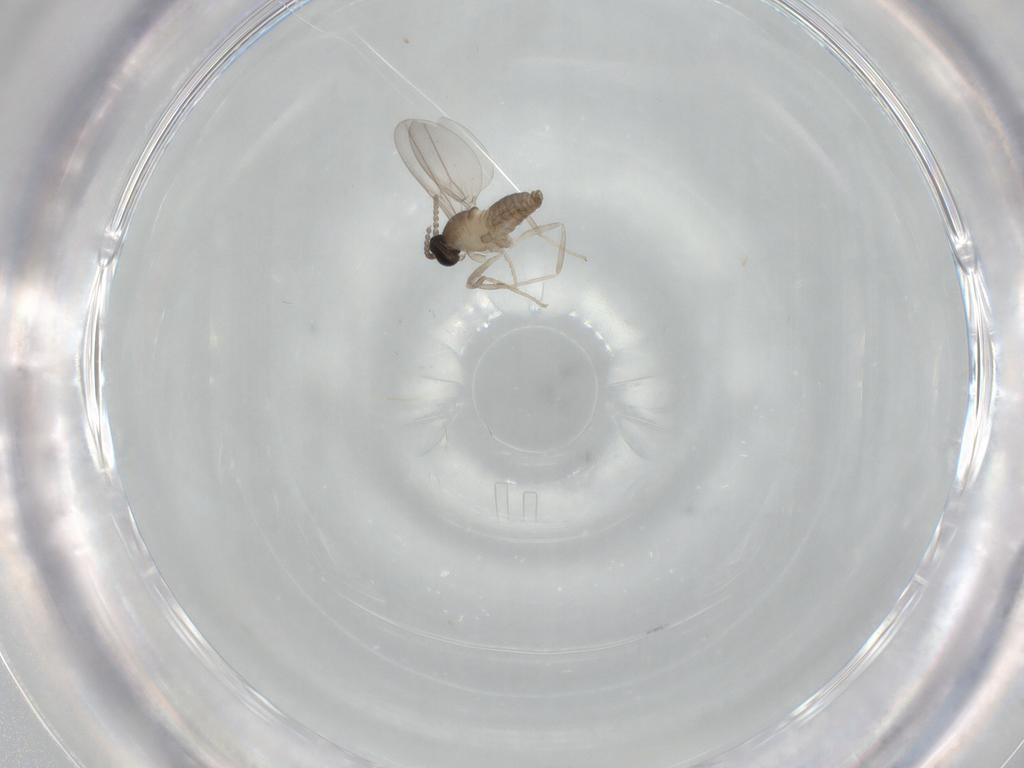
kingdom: Animalia
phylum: Arthropoda
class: Insecta
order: Diptera
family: Cecidomyiidae
